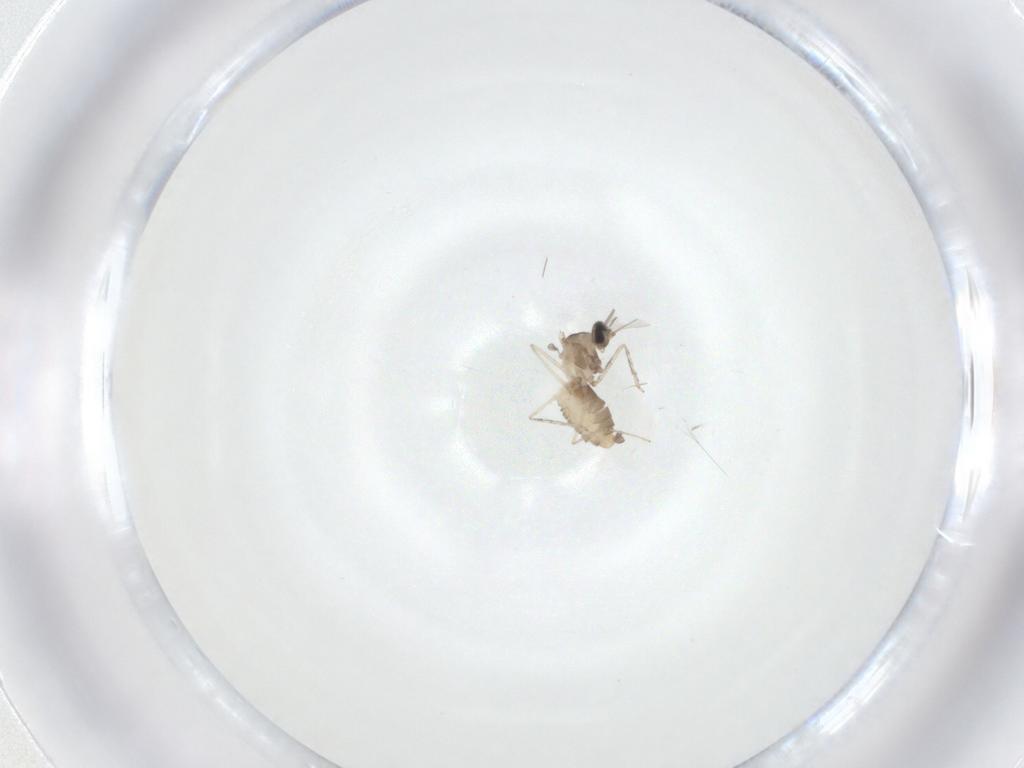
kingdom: Animalia
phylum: Arthropoda
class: Insecta
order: Diptera
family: Cecidomyiidae
